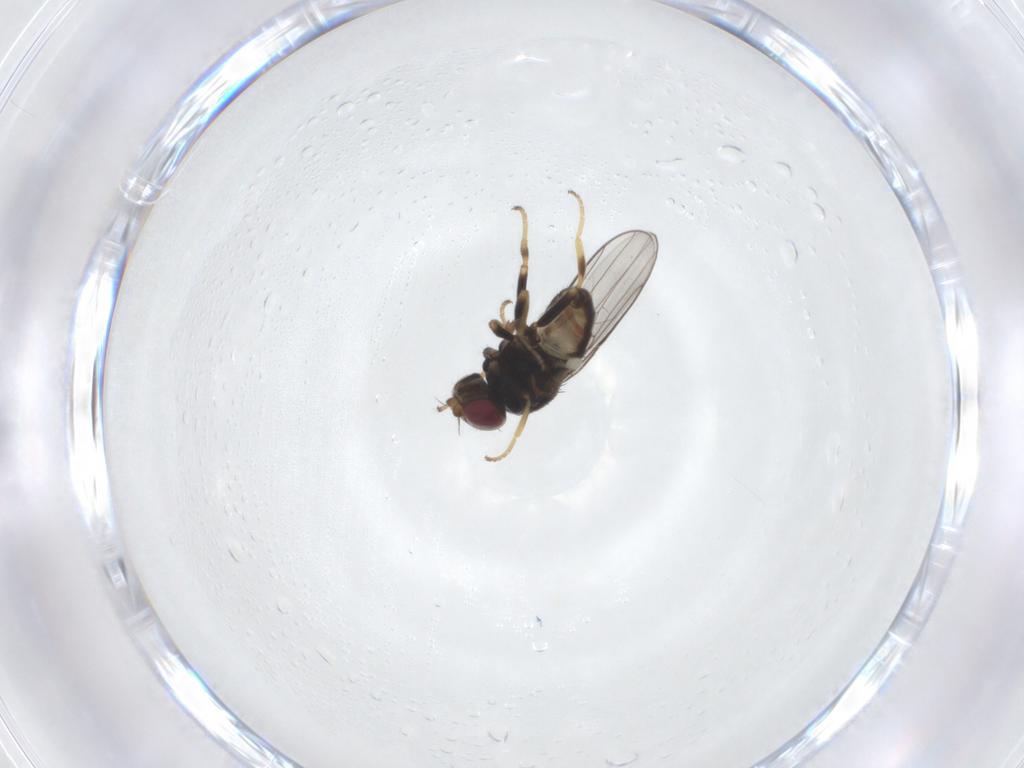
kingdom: Animalia
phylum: Arthropoda
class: Insecta
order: Diptera
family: Chloropidae
